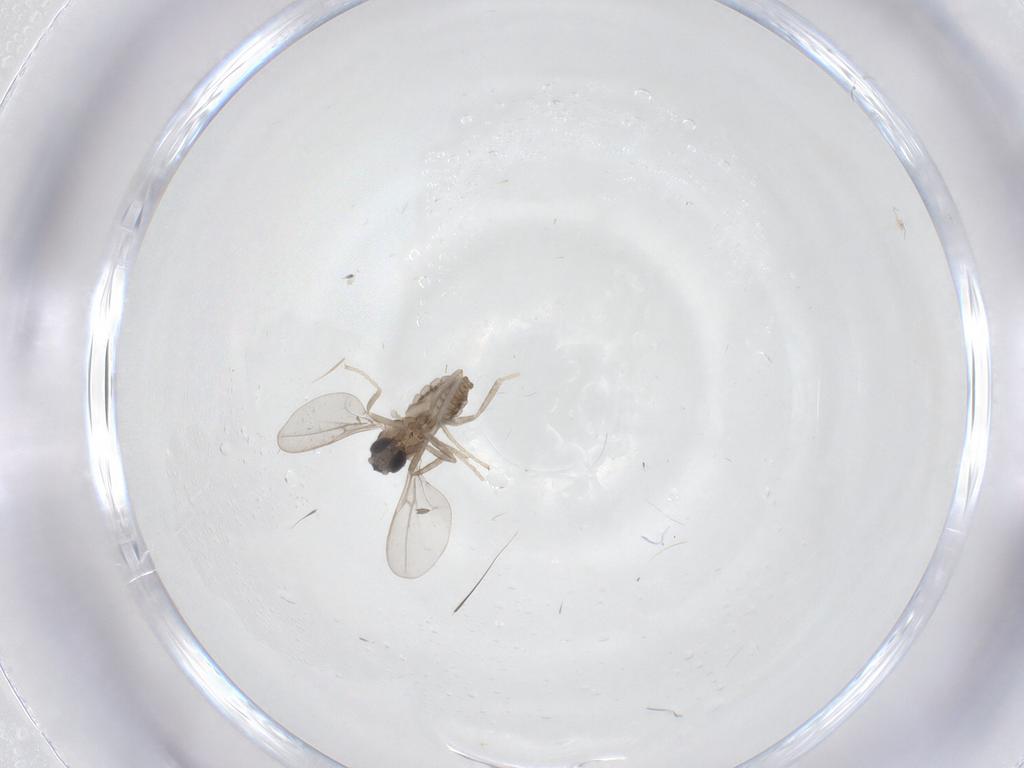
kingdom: Animalia
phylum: Arthropoda
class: Insecta
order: Diptera
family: Cecidomyiidae
